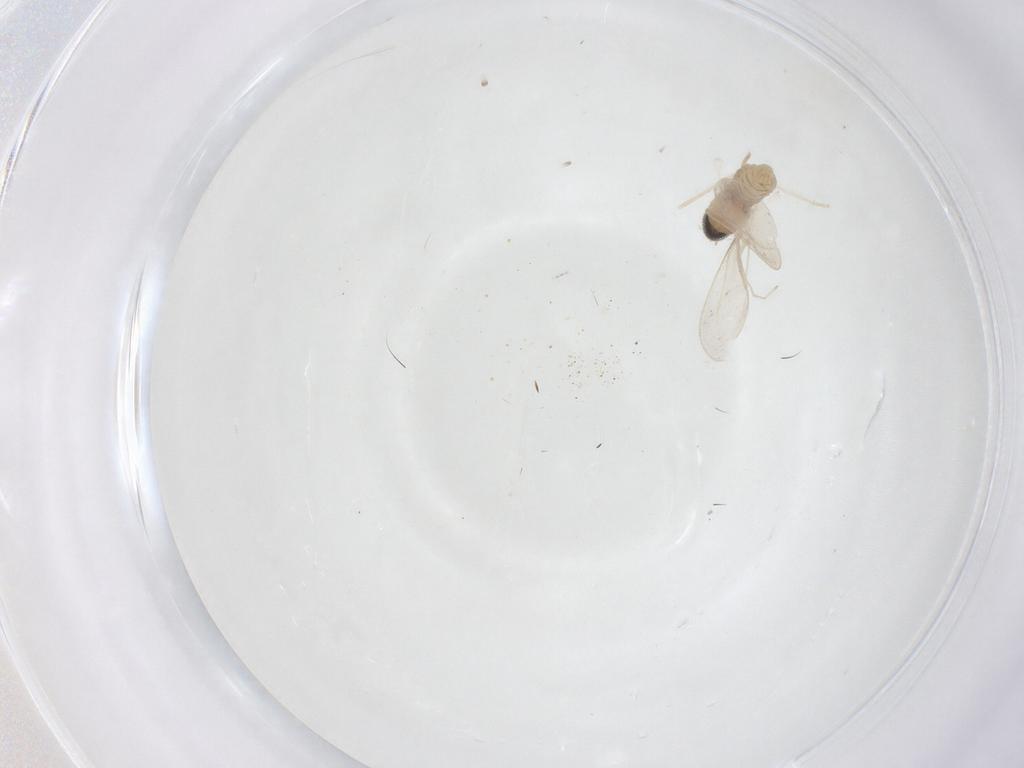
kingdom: Animalia
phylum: Arthropoda
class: Insecta
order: Diptera
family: Cecidomyiidae
